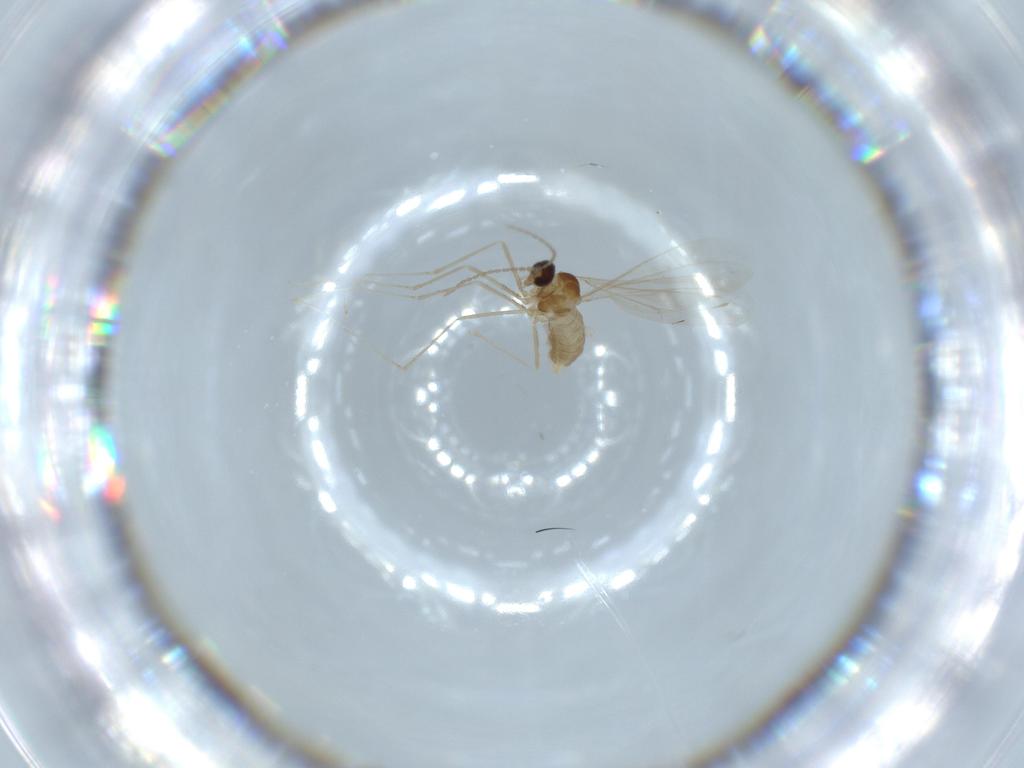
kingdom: Animalia
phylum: Arthropoda
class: Insecta
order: Diptera
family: Cecidomyiidae
